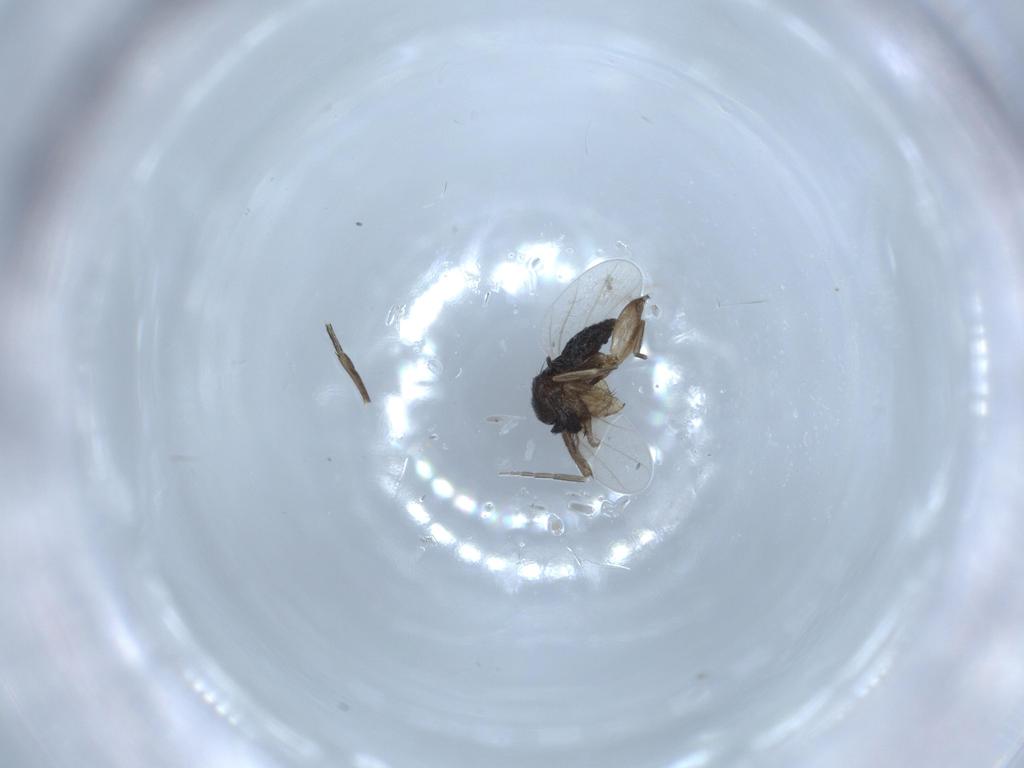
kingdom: Animalia
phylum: Arthropoda
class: Insecta
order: Diptera
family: Phoridae
